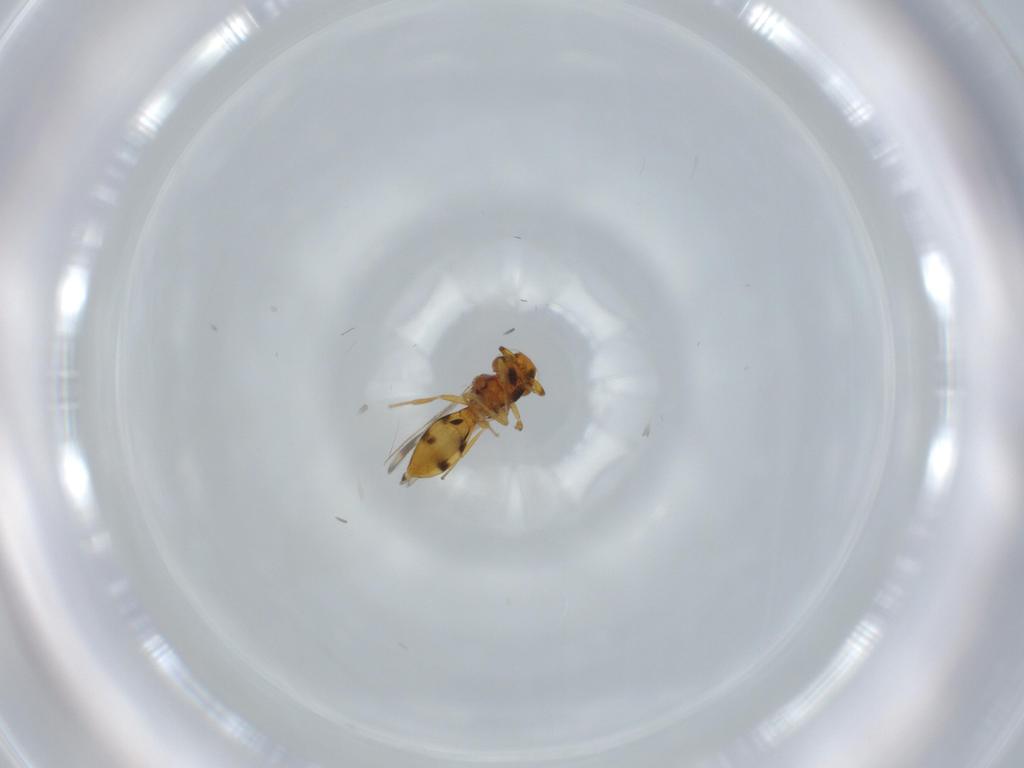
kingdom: Animalia
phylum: Arthropoda
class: Insecta
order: Hymenoptera
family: Scelionidae
